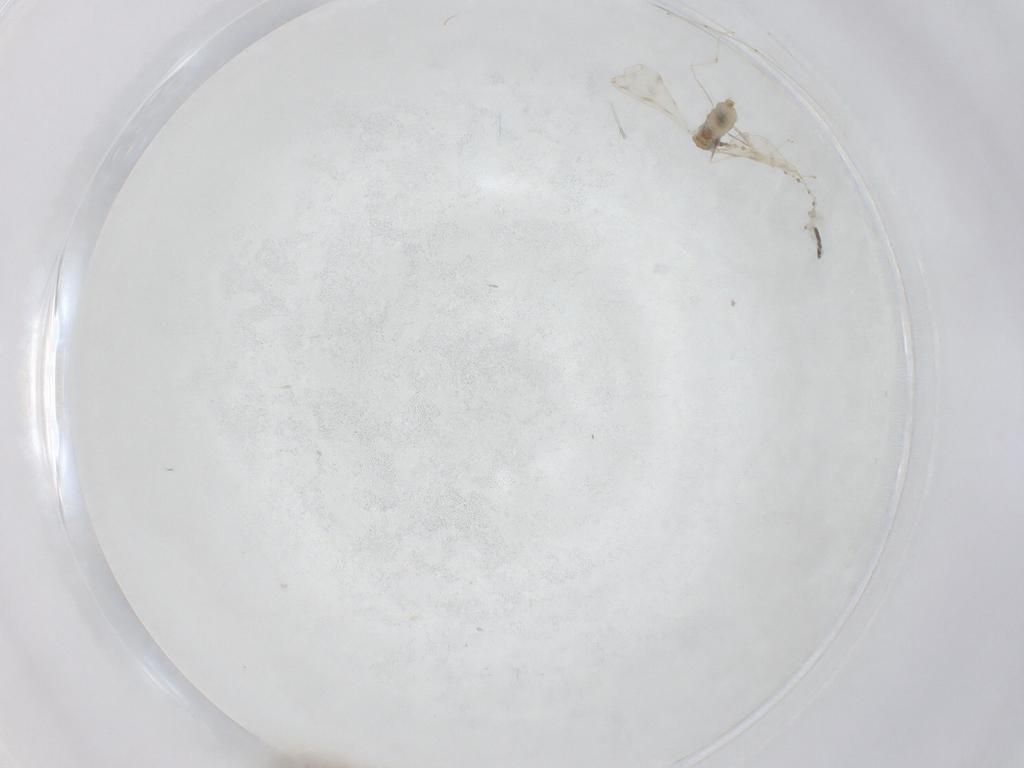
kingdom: Animalia
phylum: Arthropoda
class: Insecta
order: Diptera
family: Cecidomyiidae
